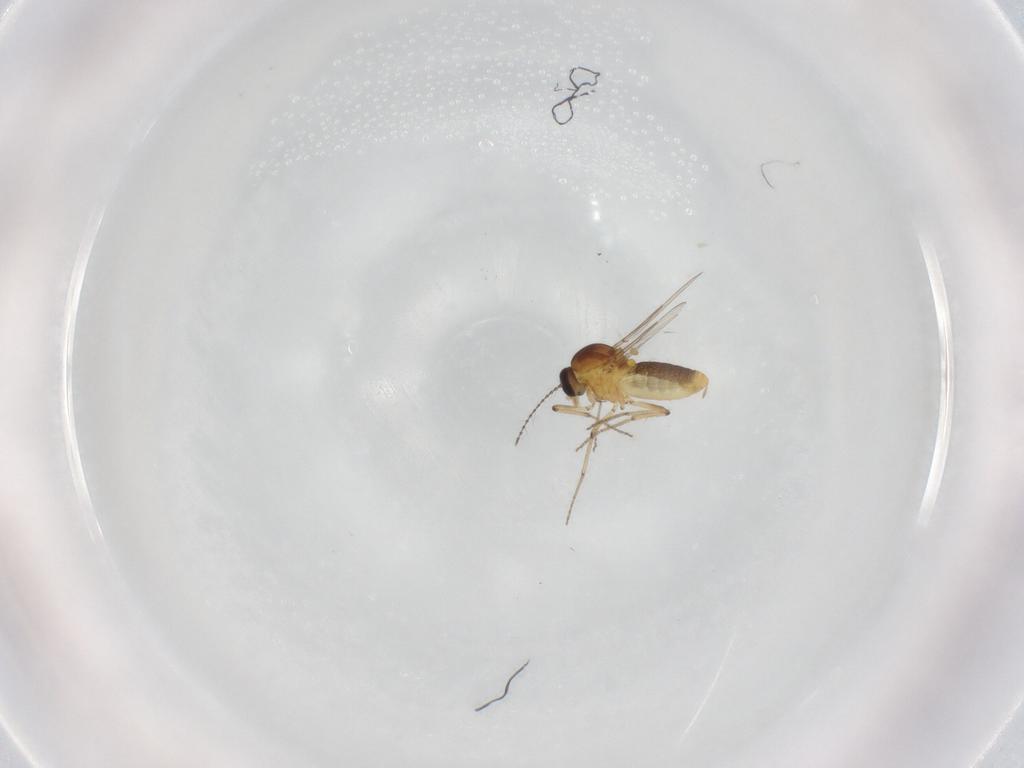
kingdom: Animalia
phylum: Arthropoda
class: Insecta
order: Diptera
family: Ceratopogonidae
